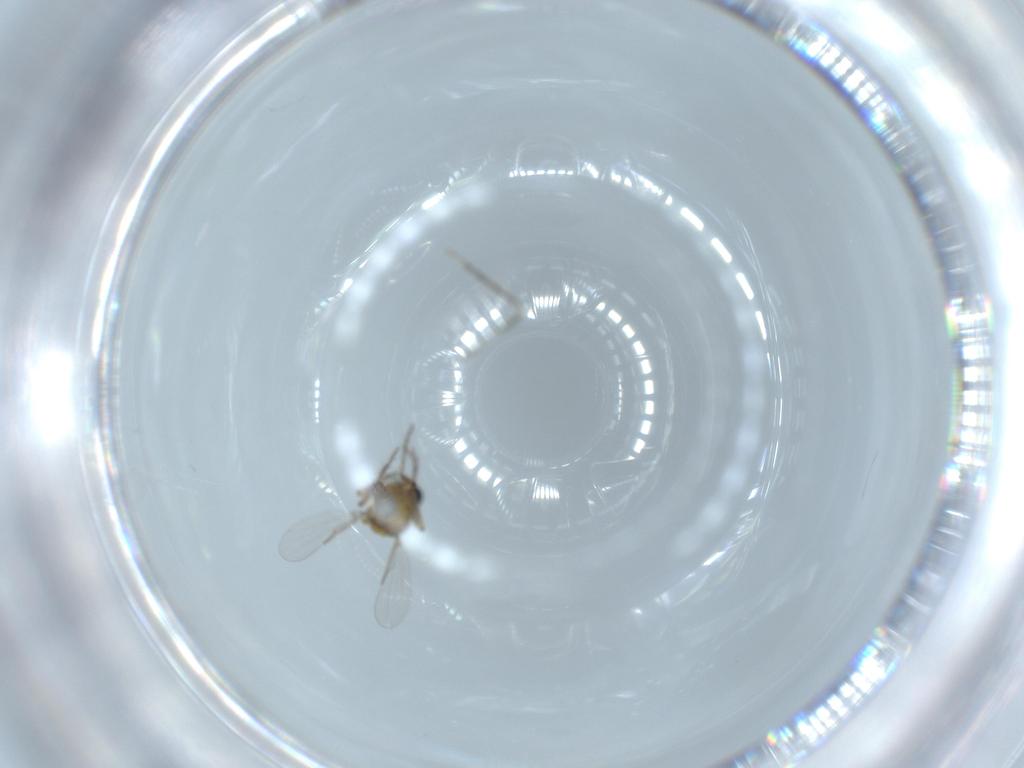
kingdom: Animalia
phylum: Arthropoda
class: Insecta
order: Diptera
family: Ceratopogonidae
